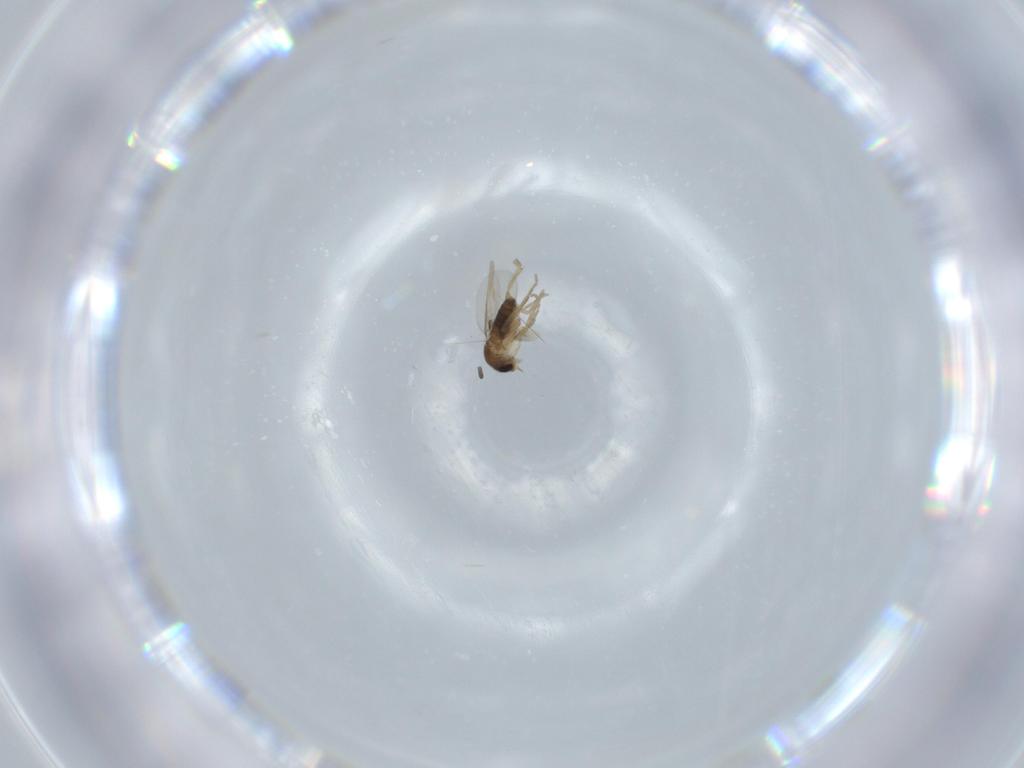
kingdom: Animalia
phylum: Arthropoda
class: Insecta
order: Diptera
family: Phoridae
